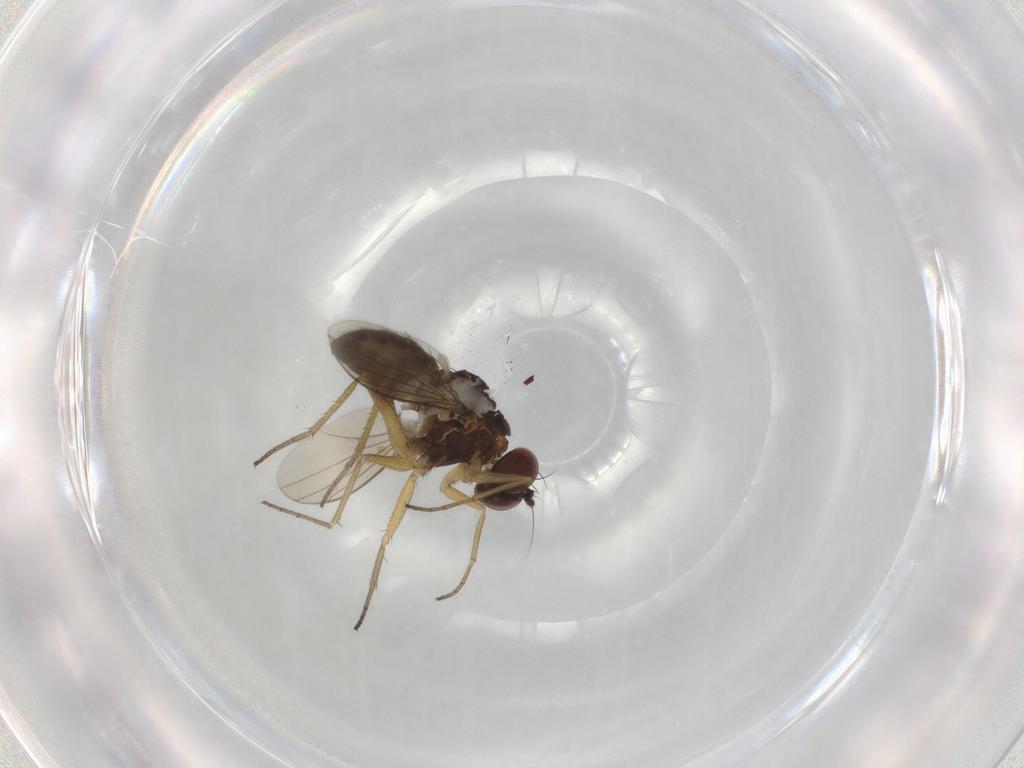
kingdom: Animalia
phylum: Arthropoda
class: Insecta
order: Diptera
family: Dolichopodidae
